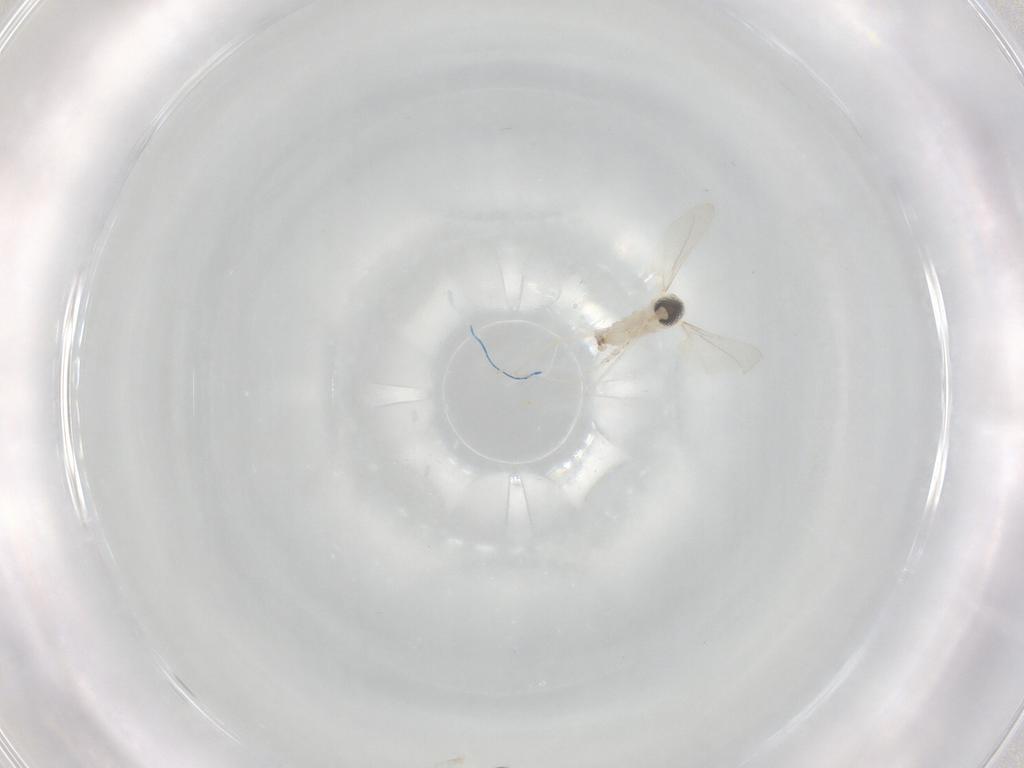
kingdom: Animalia
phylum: Arthropoda
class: Insecta
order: Diptera
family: Cecidomyiidae
